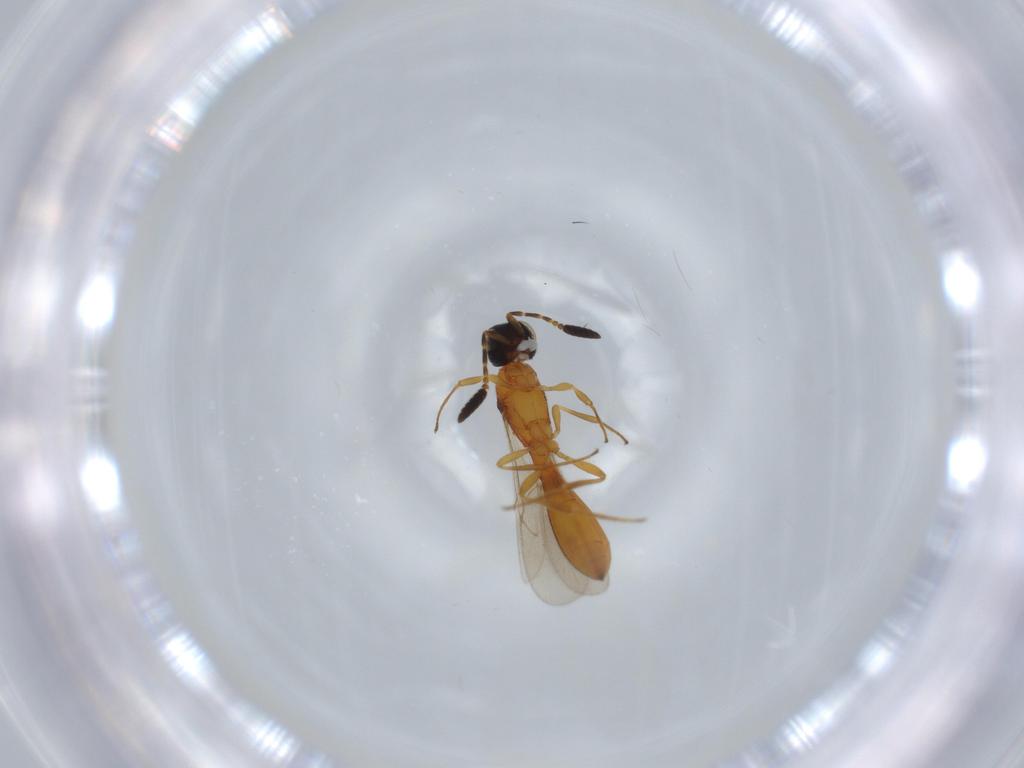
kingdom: Animalia
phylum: Arthropoda
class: Insecta
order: Hymenoptera
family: Scelionidae
